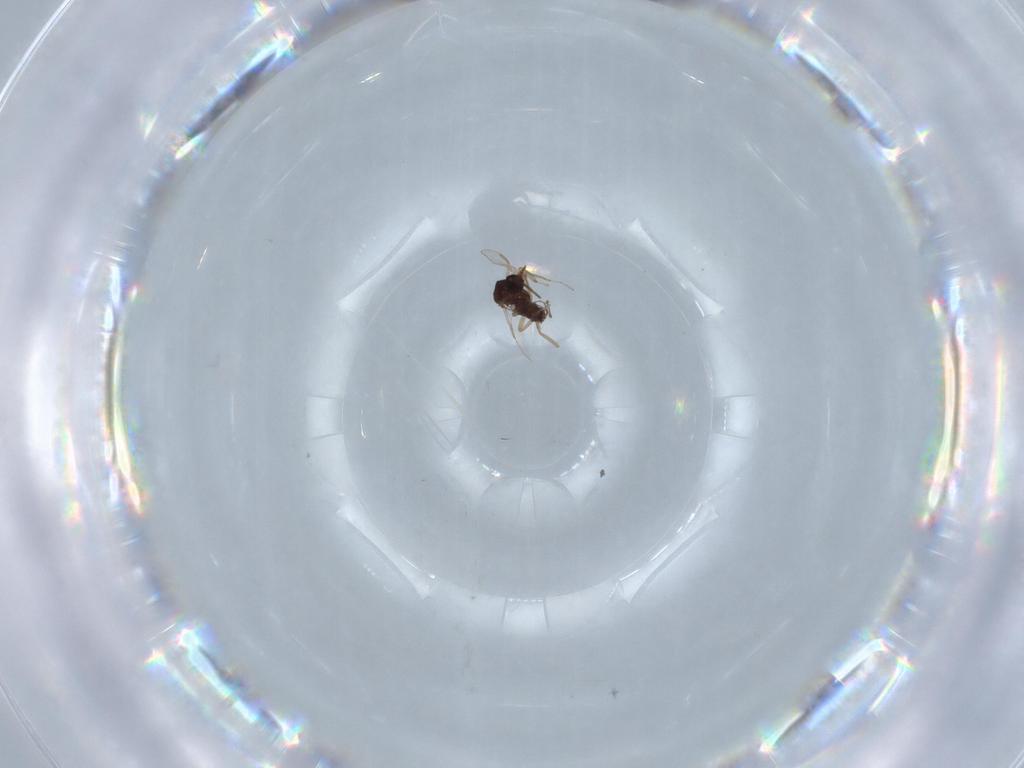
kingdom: Animalia
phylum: Arthropoda
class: Insecta
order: Diptera
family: Ceratopogonidae
